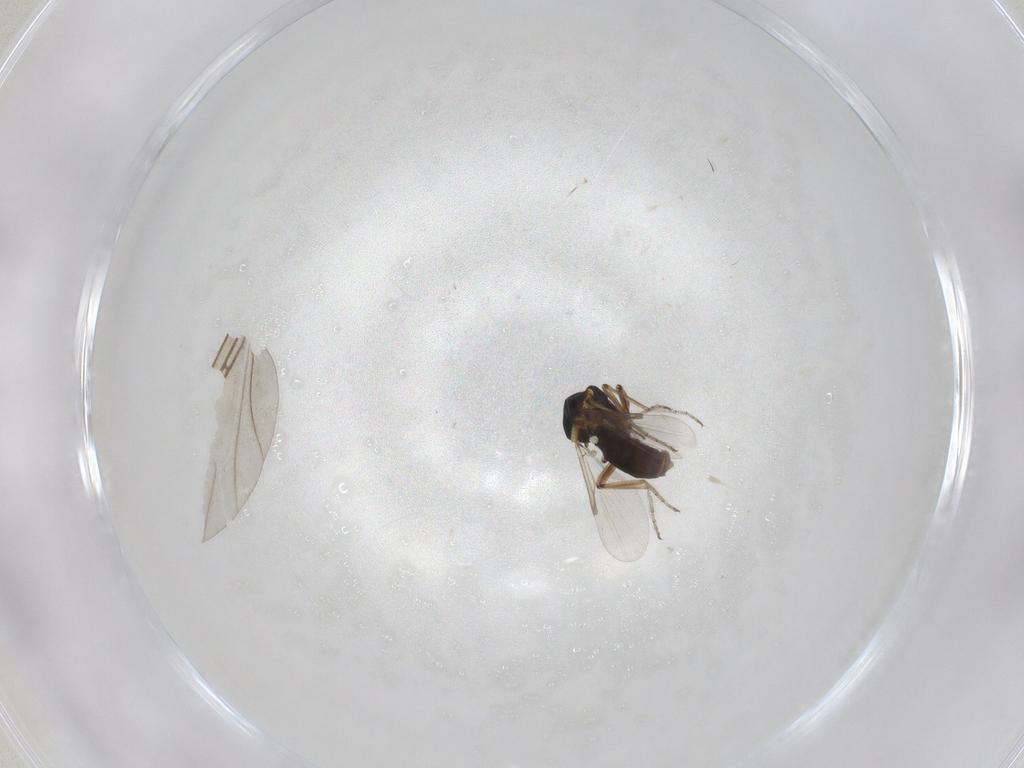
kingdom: Animalia
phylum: Arthropoda
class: Insecta
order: Diptera
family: Ceratopogonidae
